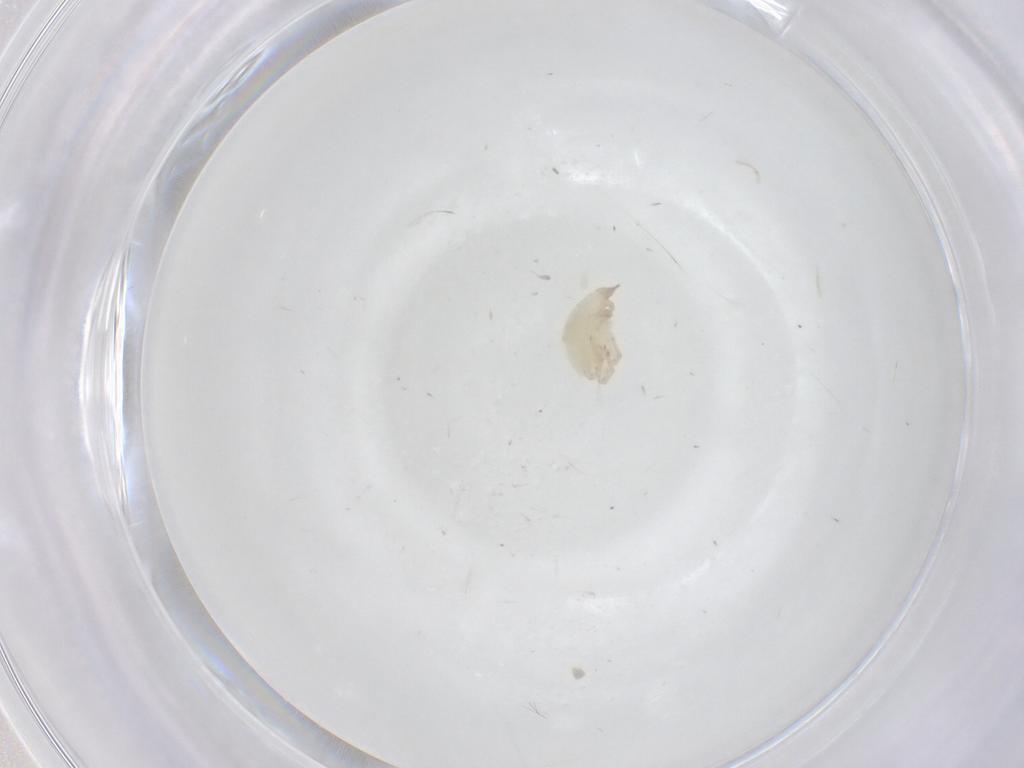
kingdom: Animalia
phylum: Arthropoda
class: Arachnida
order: Trombidiformes
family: Bdellidae
